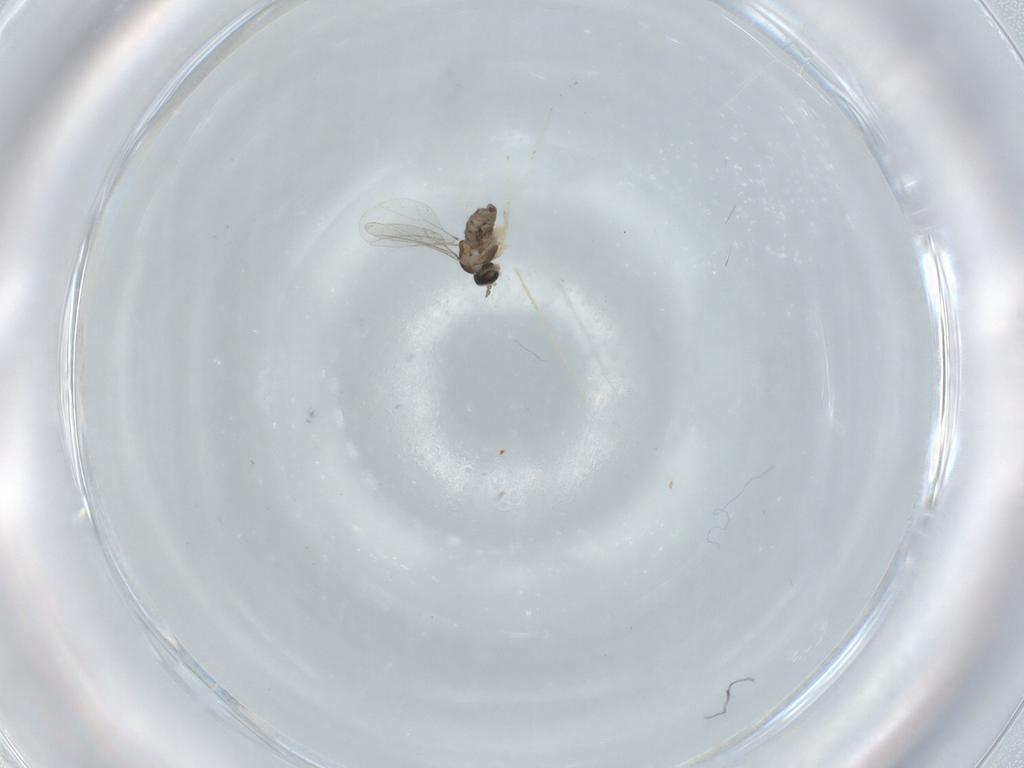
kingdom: Animalia
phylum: Arthropoda
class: Insecta
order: Diptera
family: Cecidomyiidae
